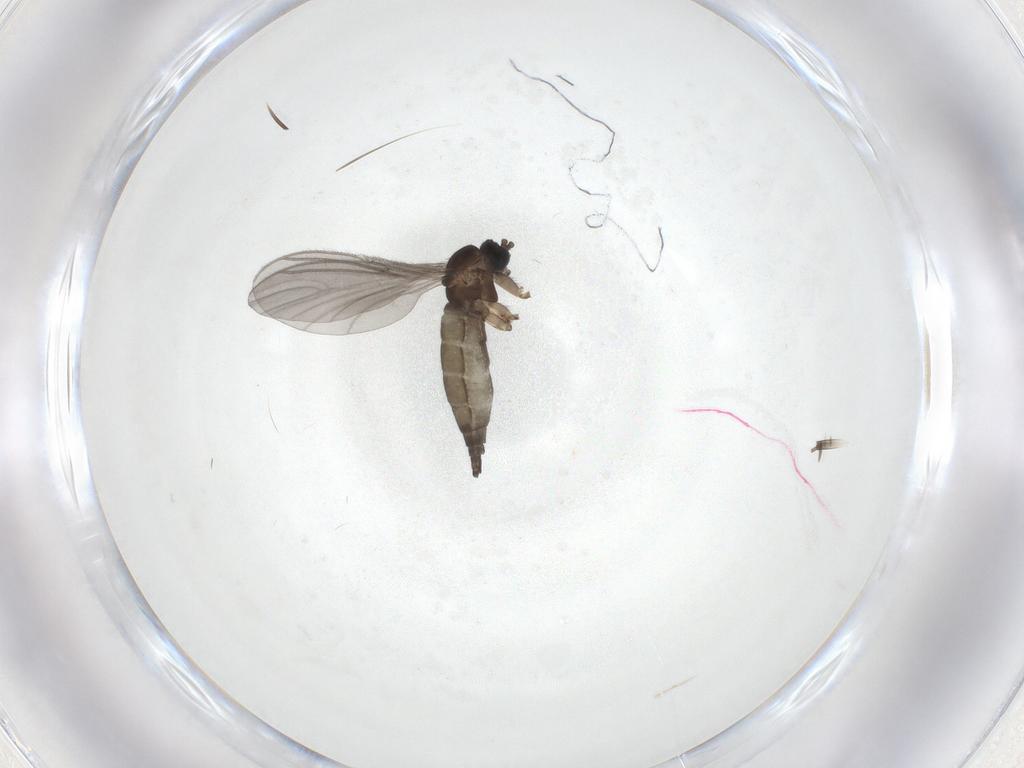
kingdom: Animalia
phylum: Arthropoda
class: Insecta
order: Diptera
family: Sciaridae
